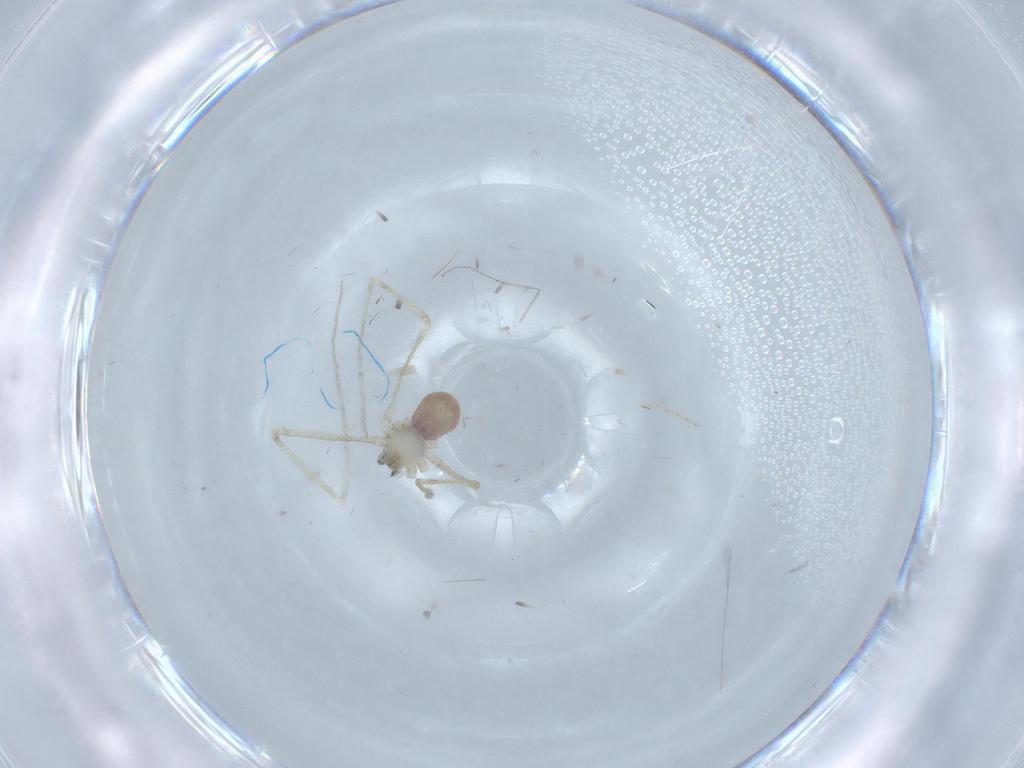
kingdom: Animalia
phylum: Arthropoda
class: Arachnida
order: Araneae
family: Pholcidae
